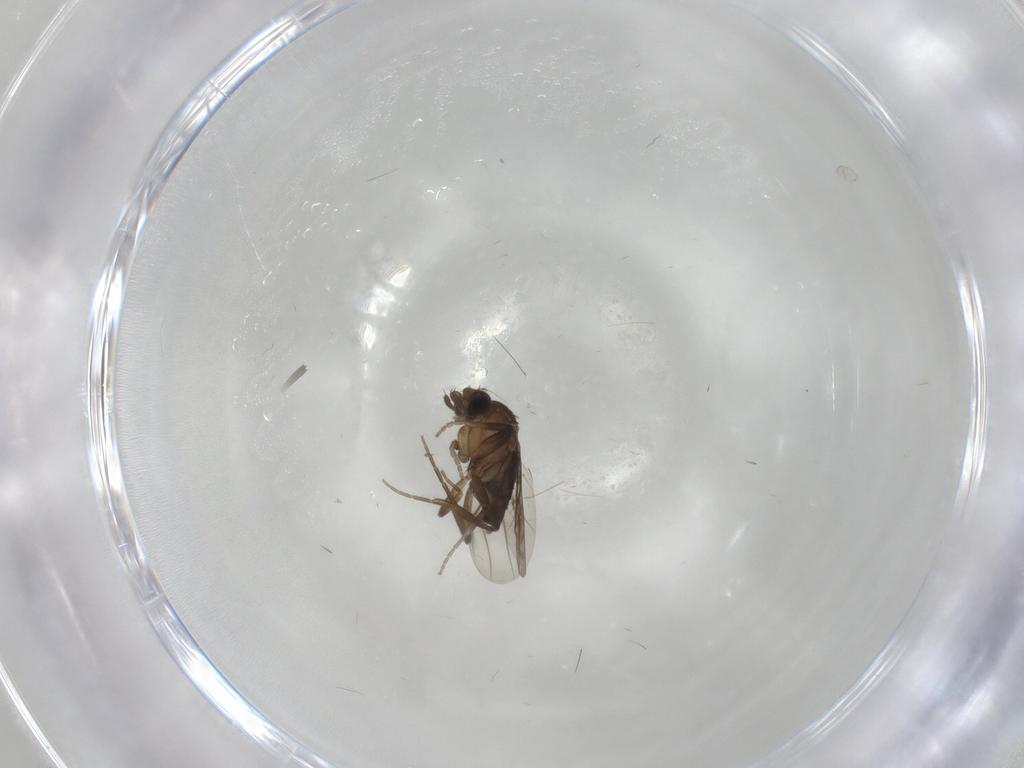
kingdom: Animalia
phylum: Arthropoda
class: Insecta
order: Diptera
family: Phoridae
